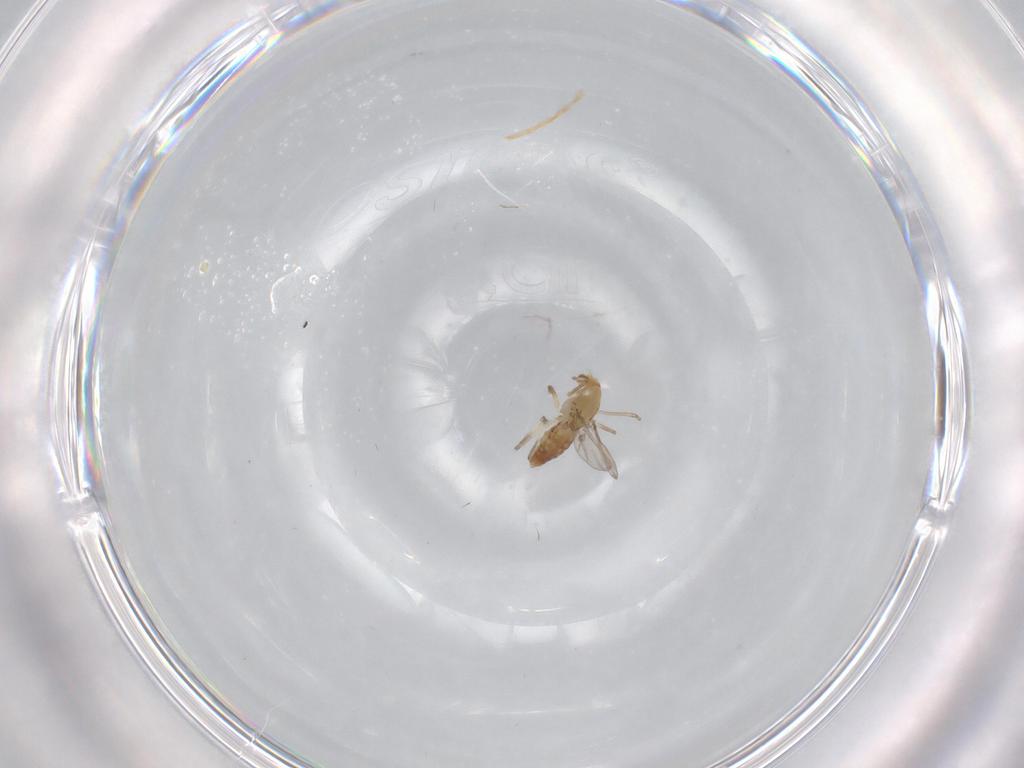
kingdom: Animalia
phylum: Arthropoda
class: Insecta
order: Diptera
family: Chironomidae
